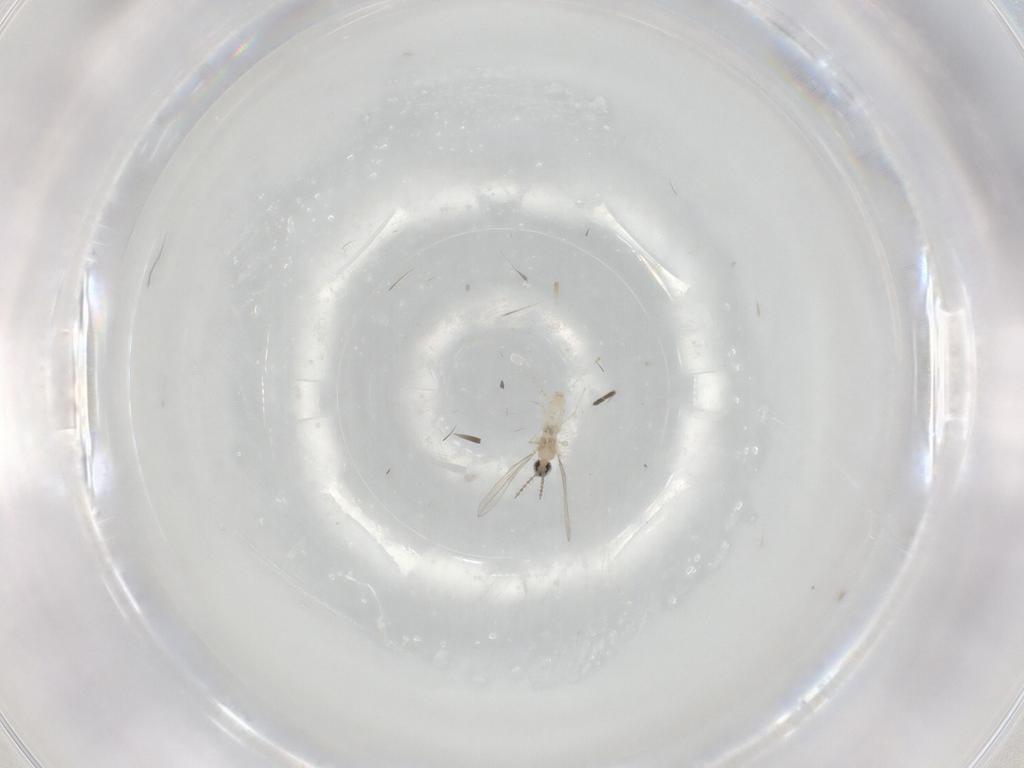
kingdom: Animalia
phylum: Arthropoda
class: Insecta
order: Diptera
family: Cecidomyiidae
